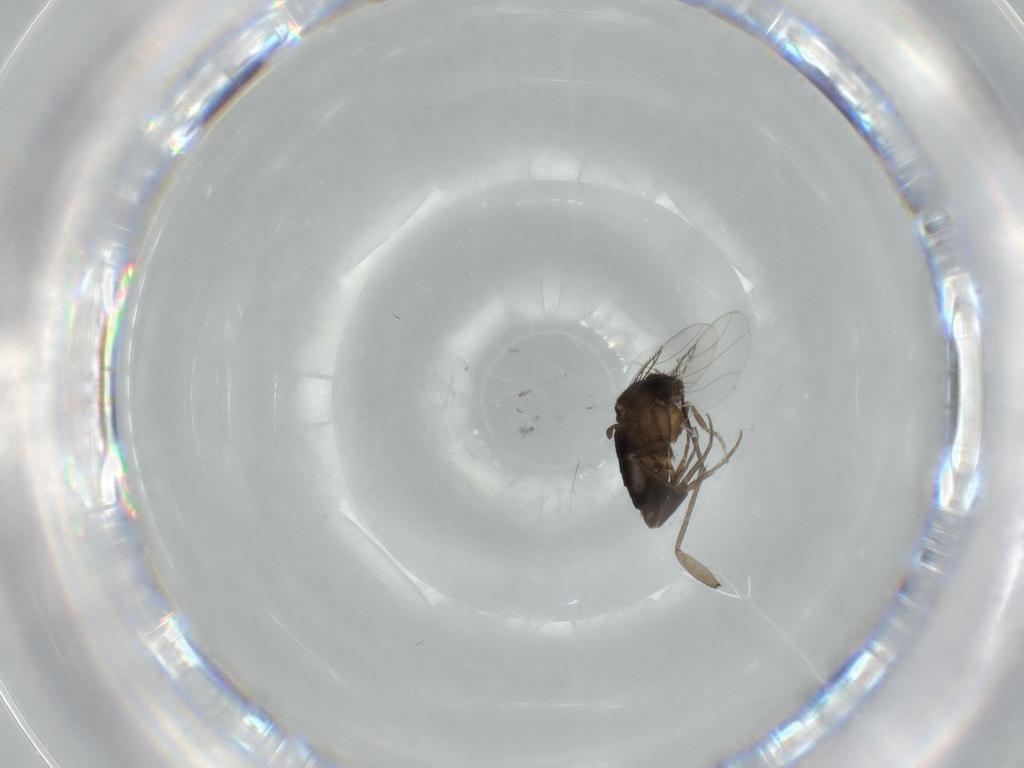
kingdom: Animalia
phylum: Arthropoda
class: Insecta
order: Diptera
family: Phoridae
